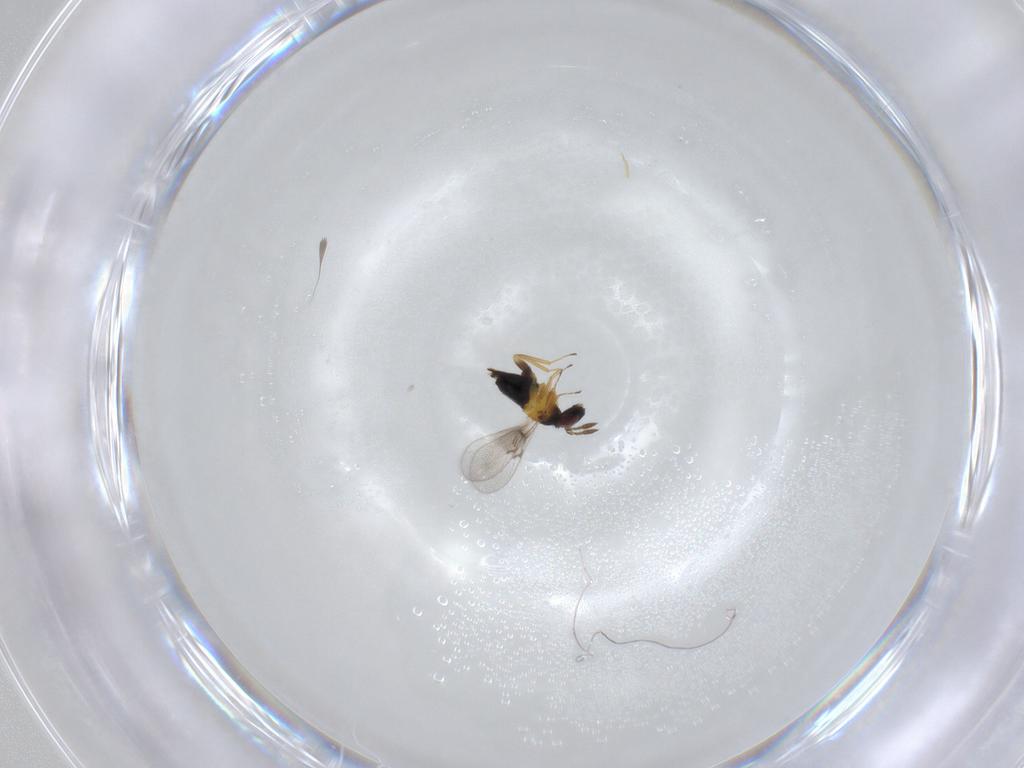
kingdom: Animalia
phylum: Arthropoda
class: Insecta
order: Hymenoptera
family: Trichogrammatidae
